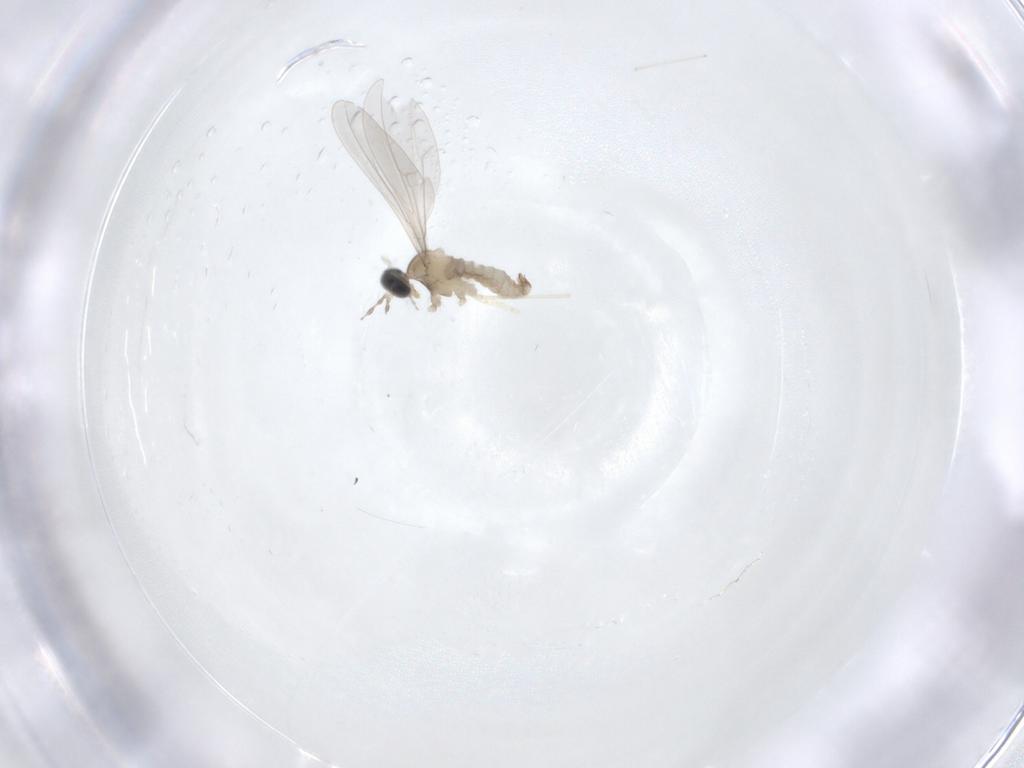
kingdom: Animalia
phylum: Arthropoda
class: Insecta
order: Diptera
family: Cecidomyiidae
